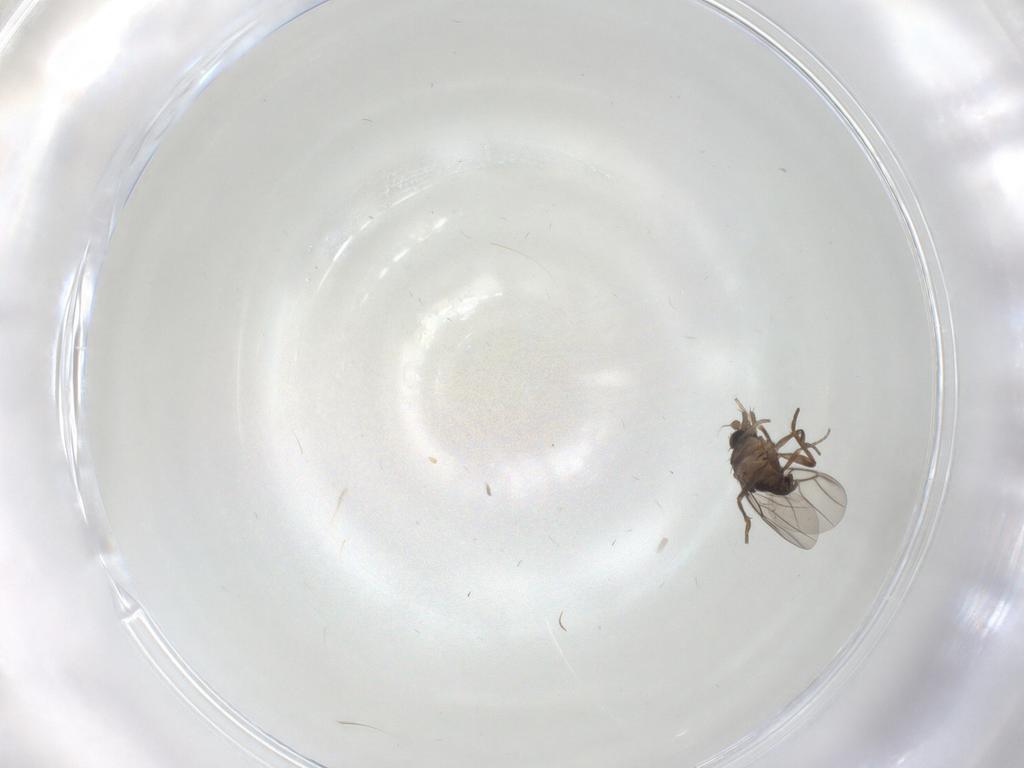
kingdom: Animalia
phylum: Arthropoda
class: Insecta
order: Diptera
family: Phoridae
